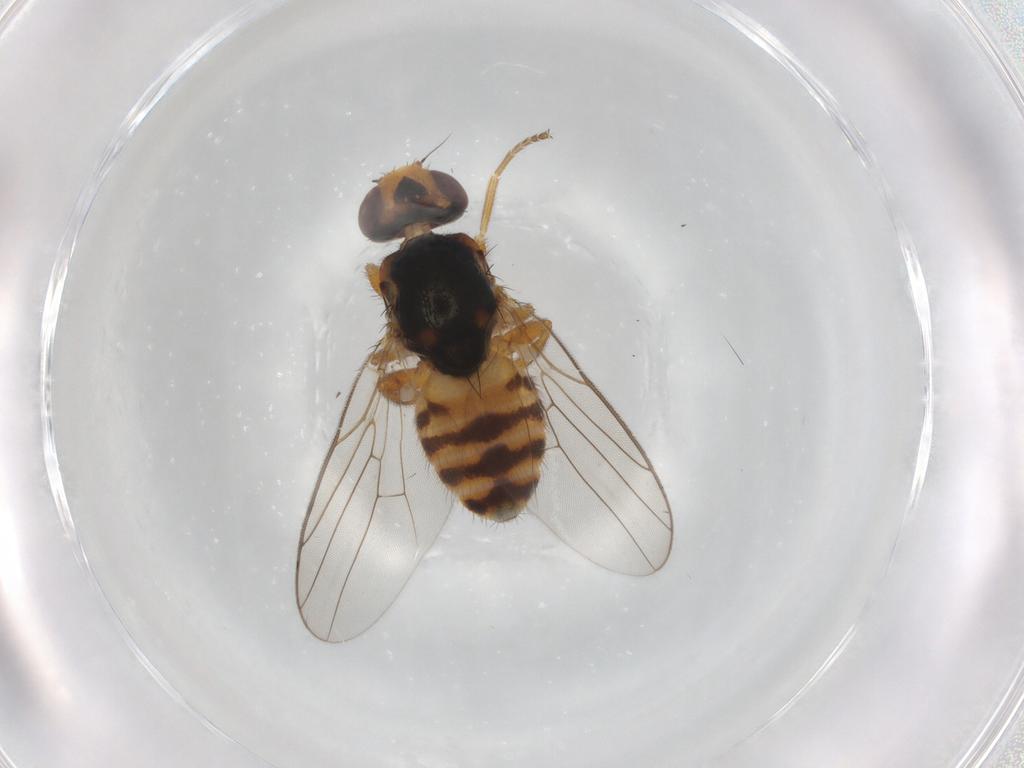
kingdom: Animalia
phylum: Arthropoda
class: Insecta
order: Diptera
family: Chloropidae
